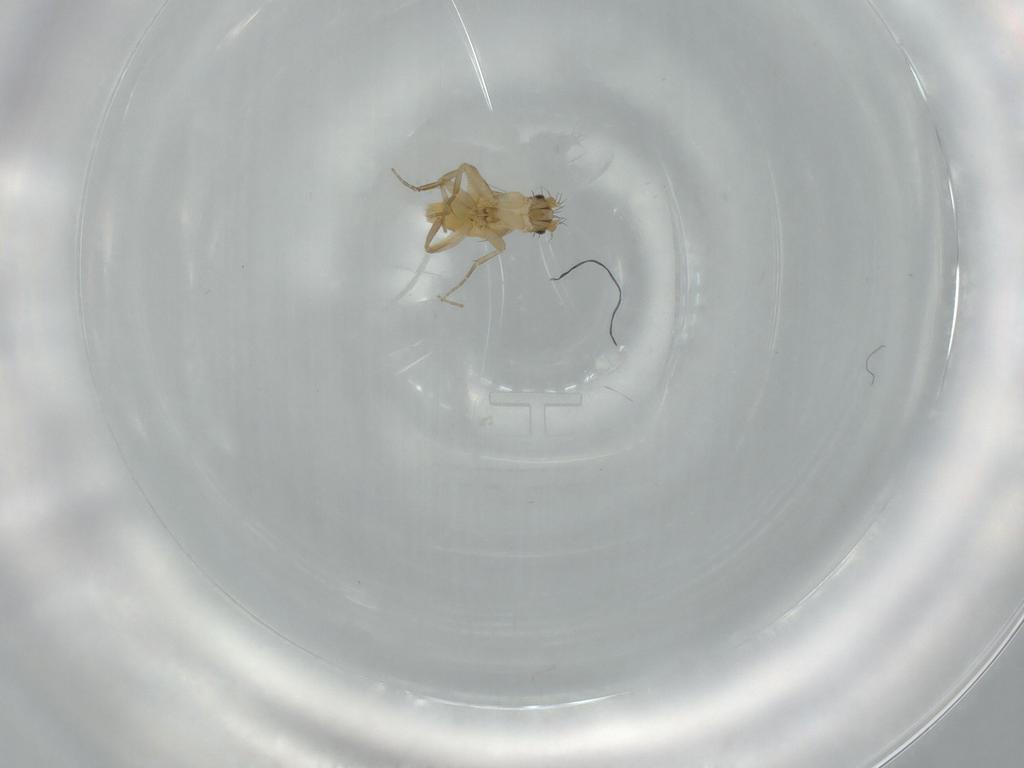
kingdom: Animalia
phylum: Arthropoda
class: Insecta
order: Diptera
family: Phoridae
